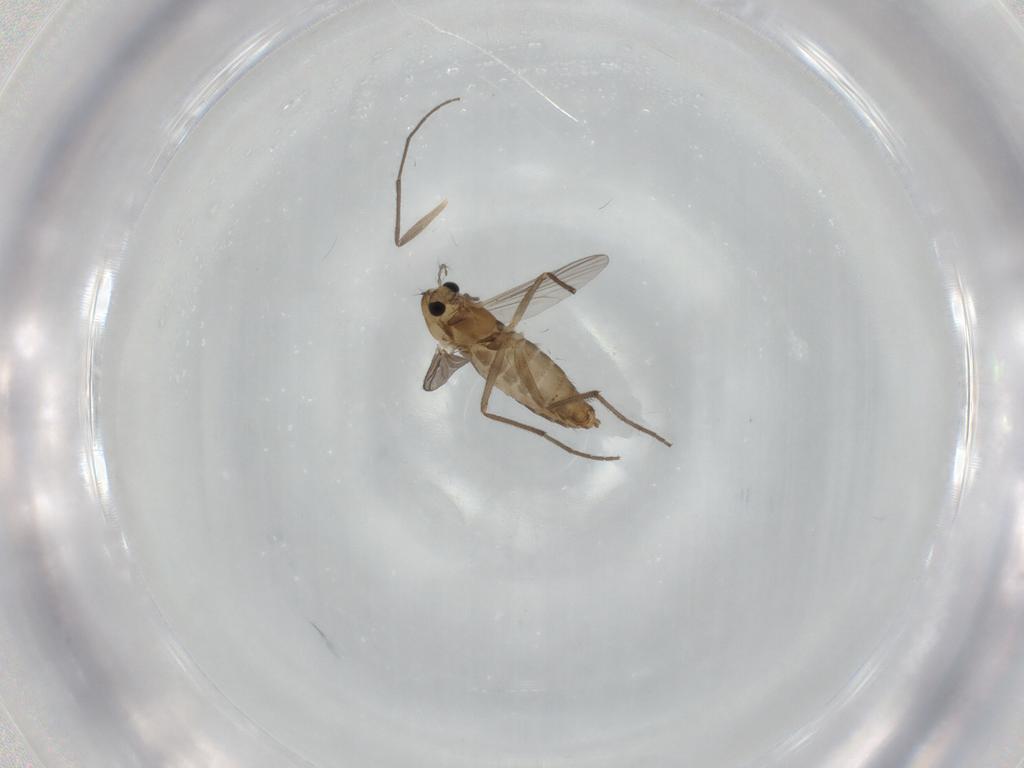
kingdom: Animalia
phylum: Arthropoda
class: Insecta
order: Diptera
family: Chironomidae
